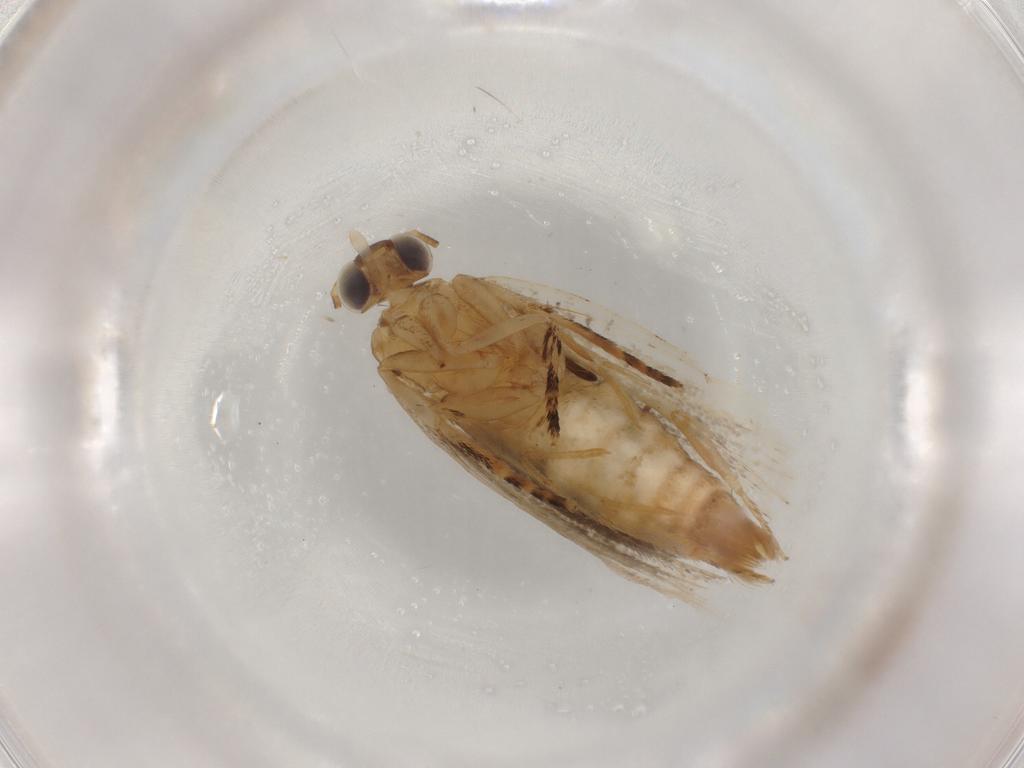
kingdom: Animalia
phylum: Arthropoda
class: Insecta
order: Lepidoptera
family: Tortricidae
